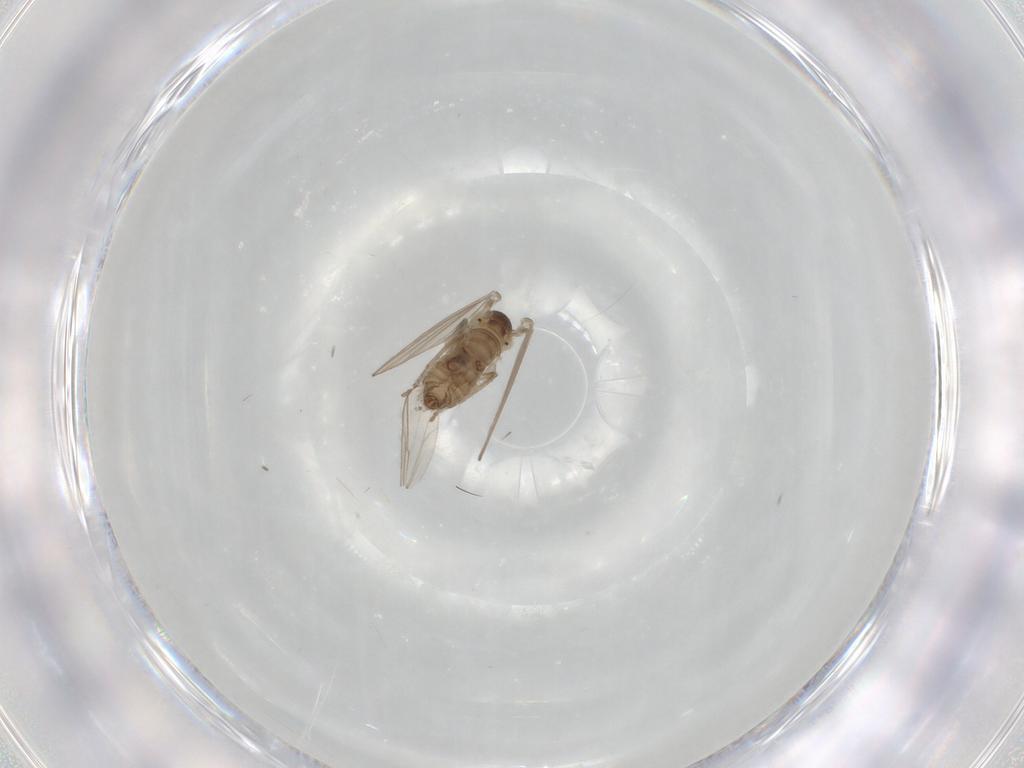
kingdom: Animalia
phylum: Arthropoda
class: Insecta
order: Diptera
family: Psychodidae
